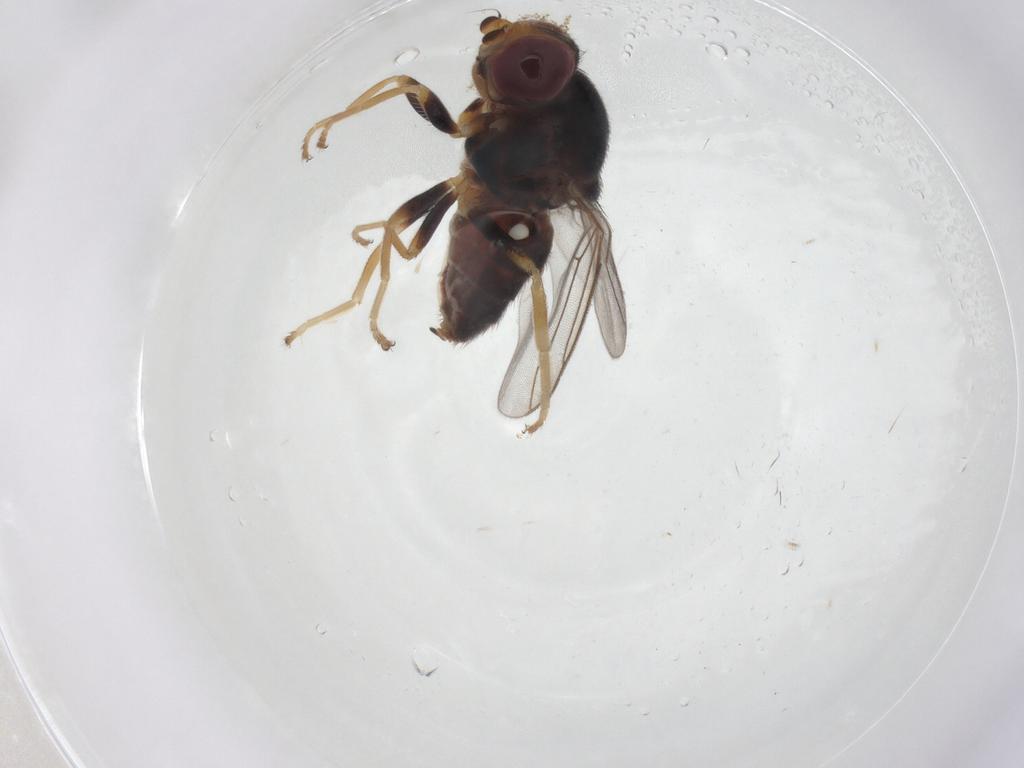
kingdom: Animalia
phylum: Arthropoda
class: Insecta
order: Diptera
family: Chloropidae
